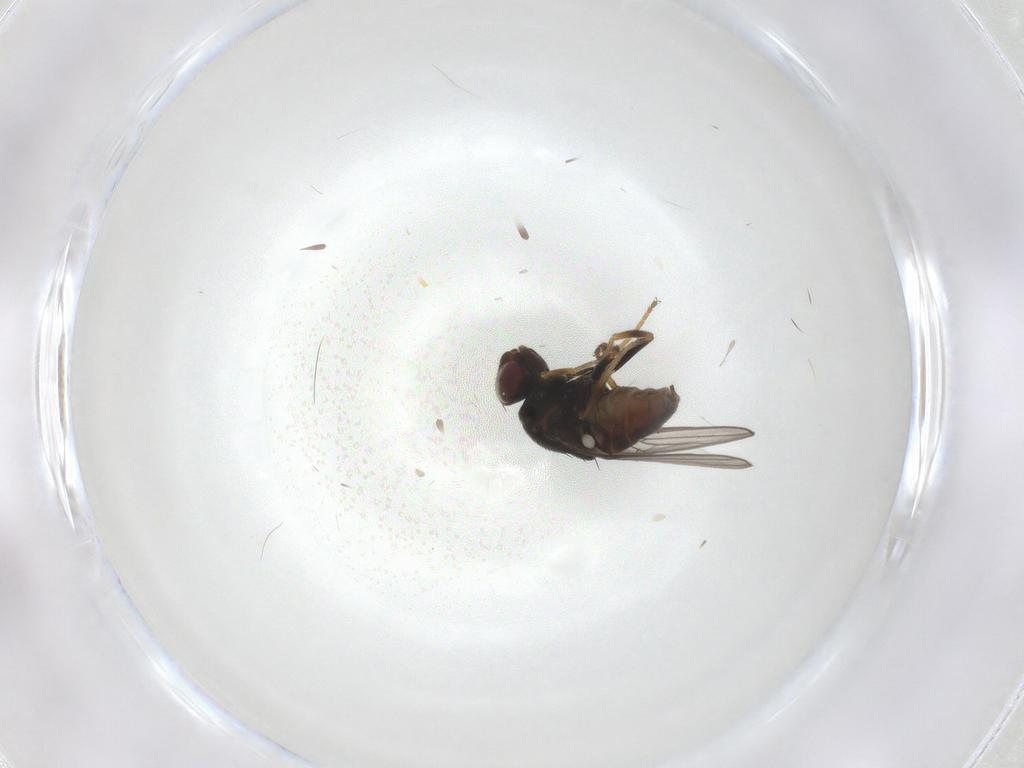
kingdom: Animalia
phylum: Arthropoda
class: Insecta
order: Diptera
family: Chloropidae
